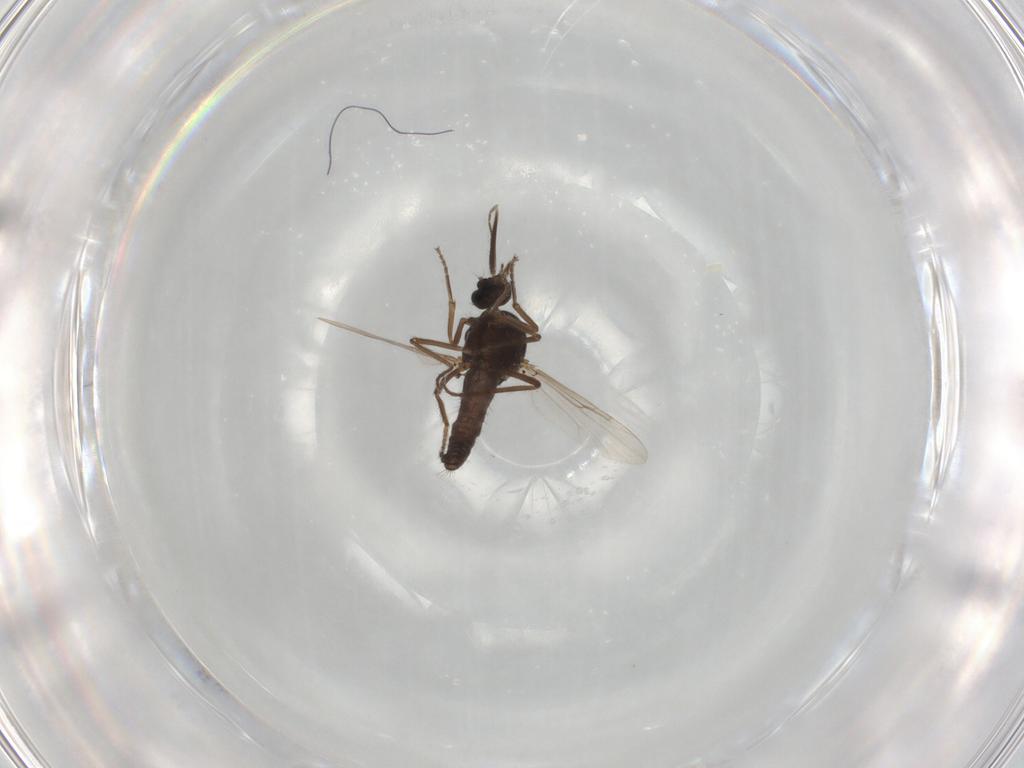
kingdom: Animalia
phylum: Arthropoda
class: Insecta
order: Diptera
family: Ceratopogonidae
